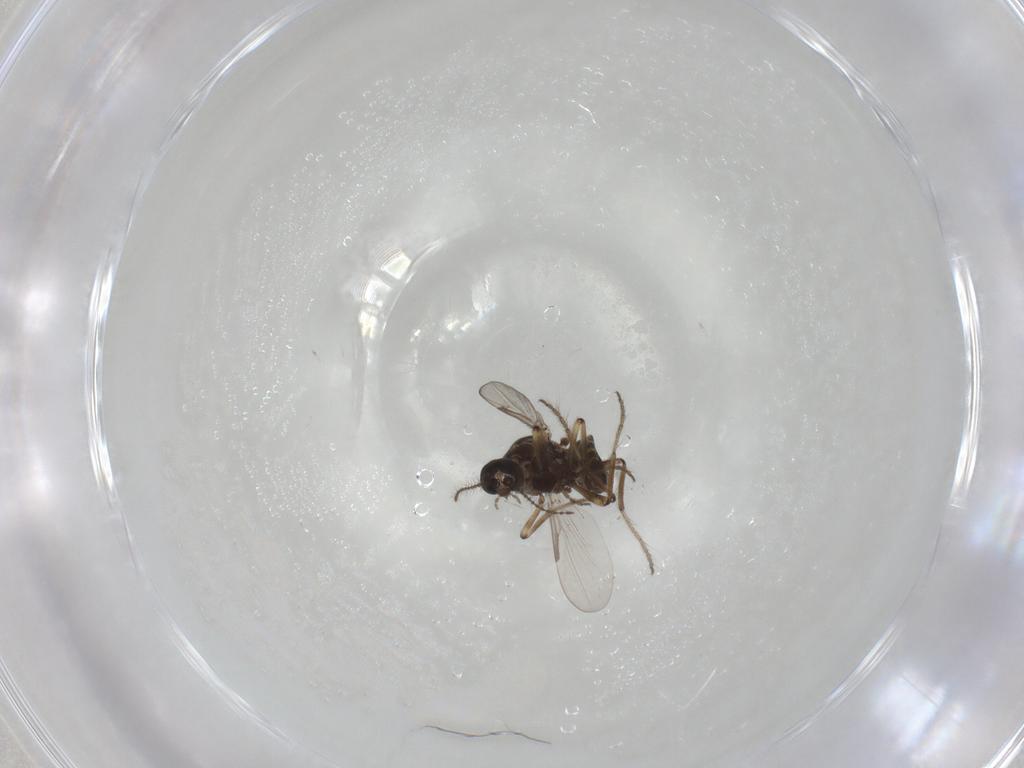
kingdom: Animalia
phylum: Arthropoda
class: Insecta
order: Diptera
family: Ceratopogonidae
